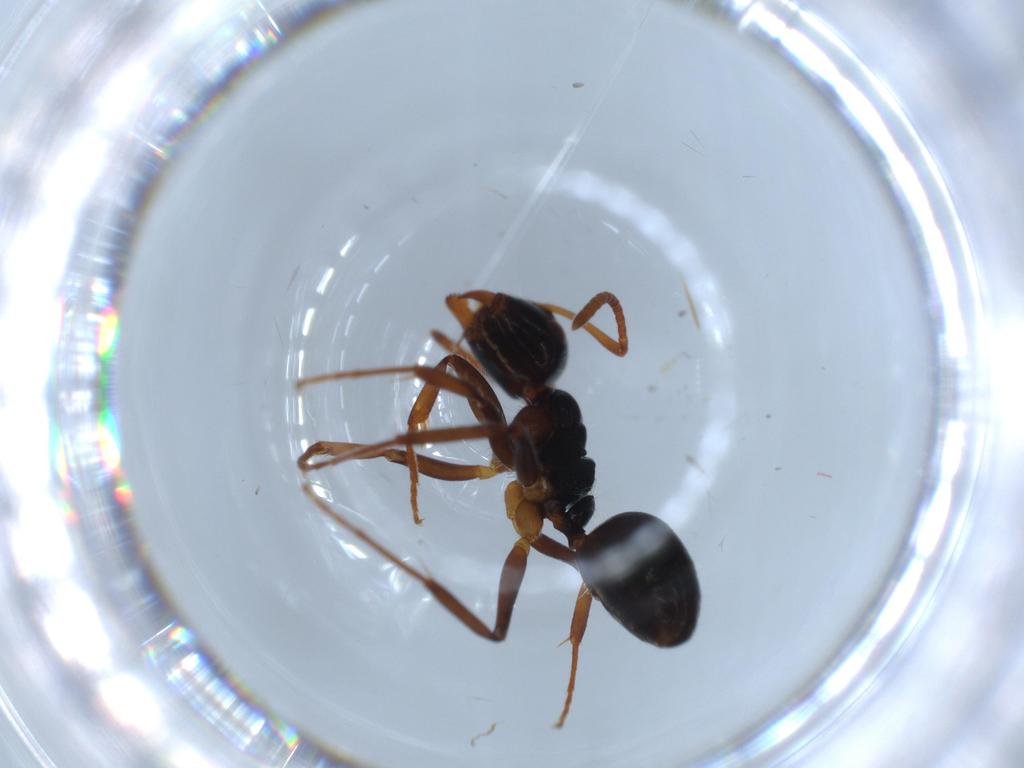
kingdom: Animalia
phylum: Arthropoda
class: Insecta
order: Hymenoptera
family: Formicidae
